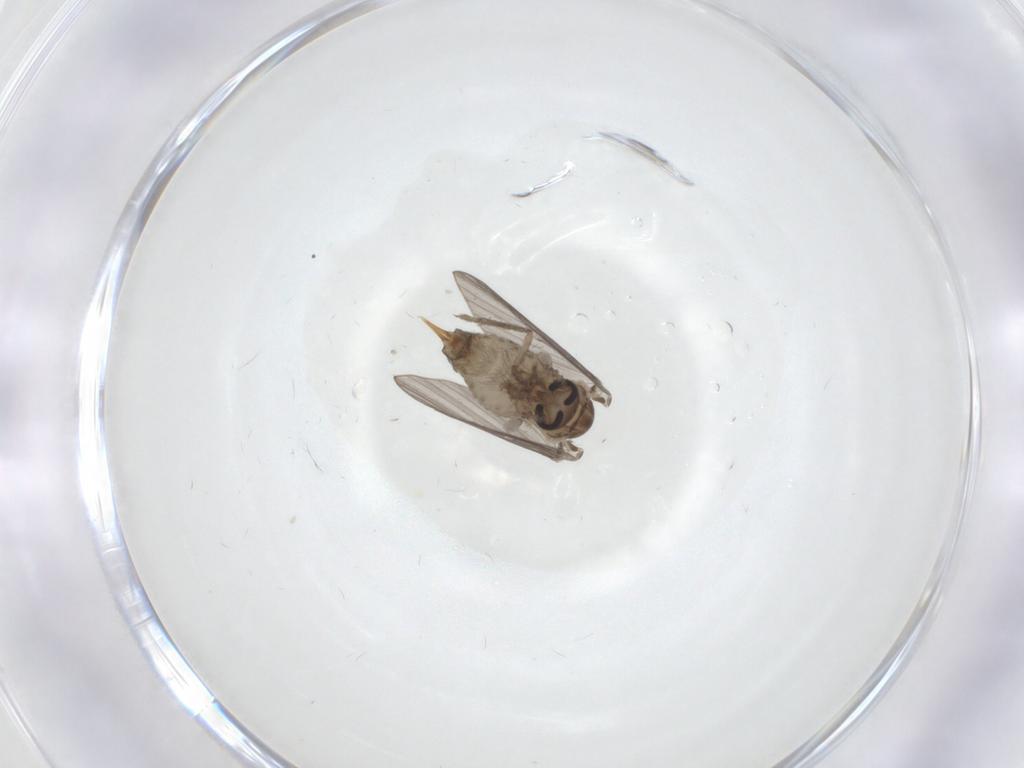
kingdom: Animalia
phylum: Arthropoda
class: Insecta
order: Diptera
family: Psychodidae
